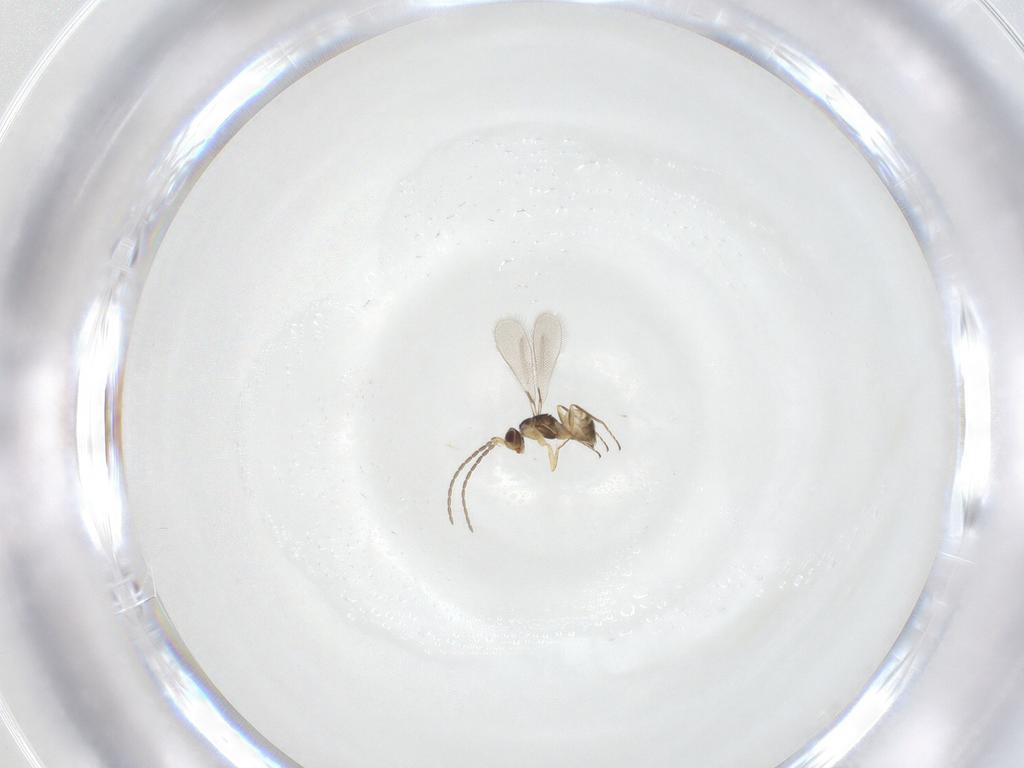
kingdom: Animalia
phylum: Arthropoda
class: Insecta
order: Hymenoptera
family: Mymaridae
